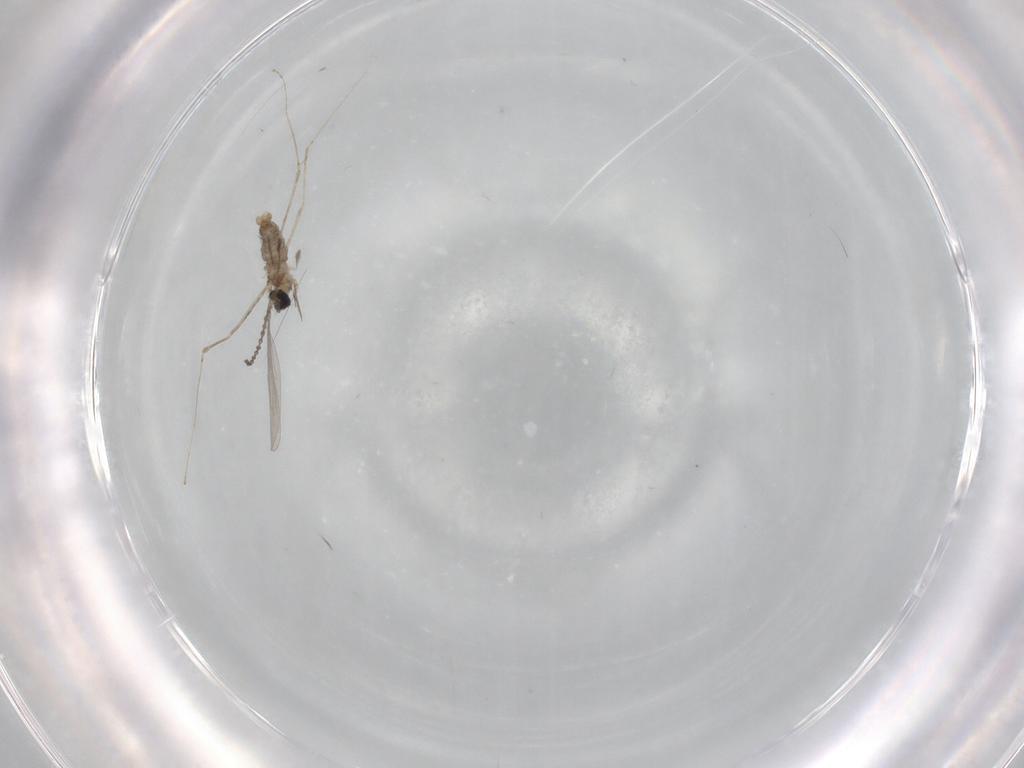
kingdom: Animalia
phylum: Arthropoda
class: Insecta
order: Diptera
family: Cecidomyiidae
